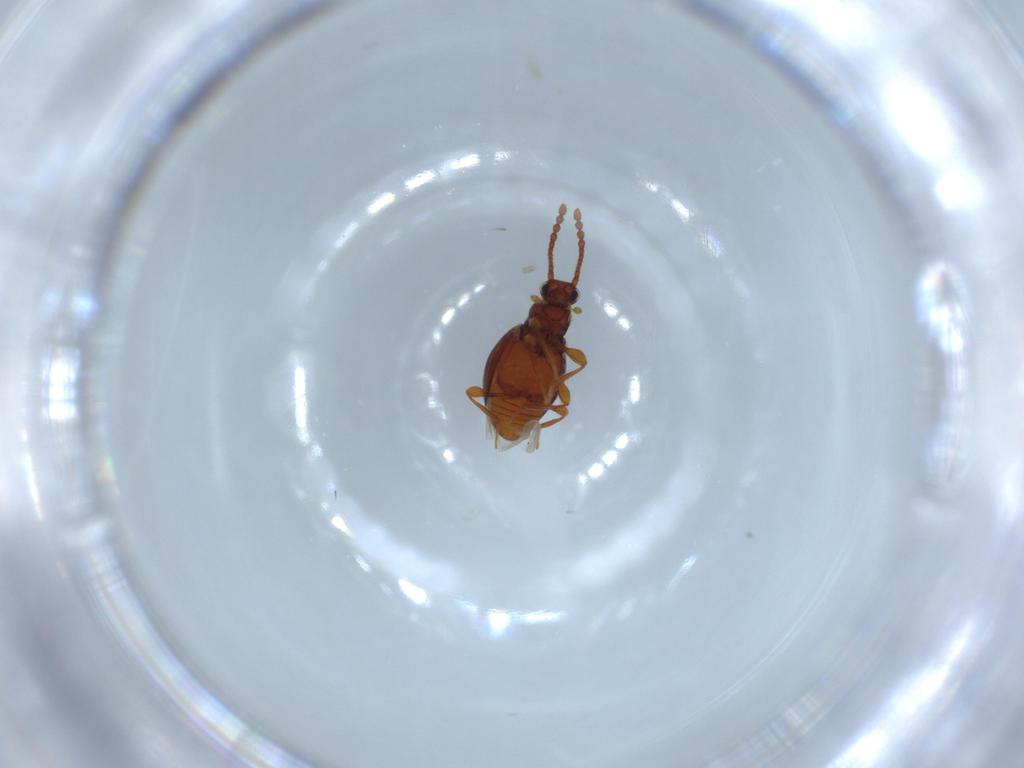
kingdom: Animalia
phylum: Arthropoda
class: Insecta
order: Coleoptera
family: Staphylinidae
